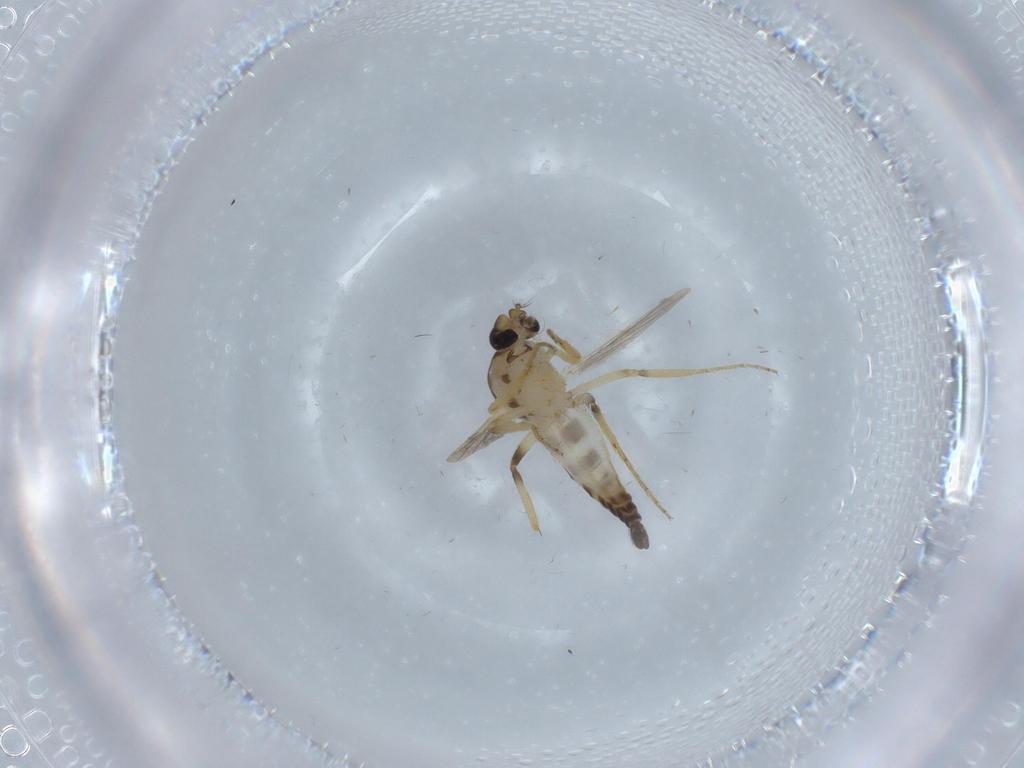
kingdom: Animalia
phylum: Arthropoda
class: Insecta
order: Diptera
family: Ceratopogonidae
